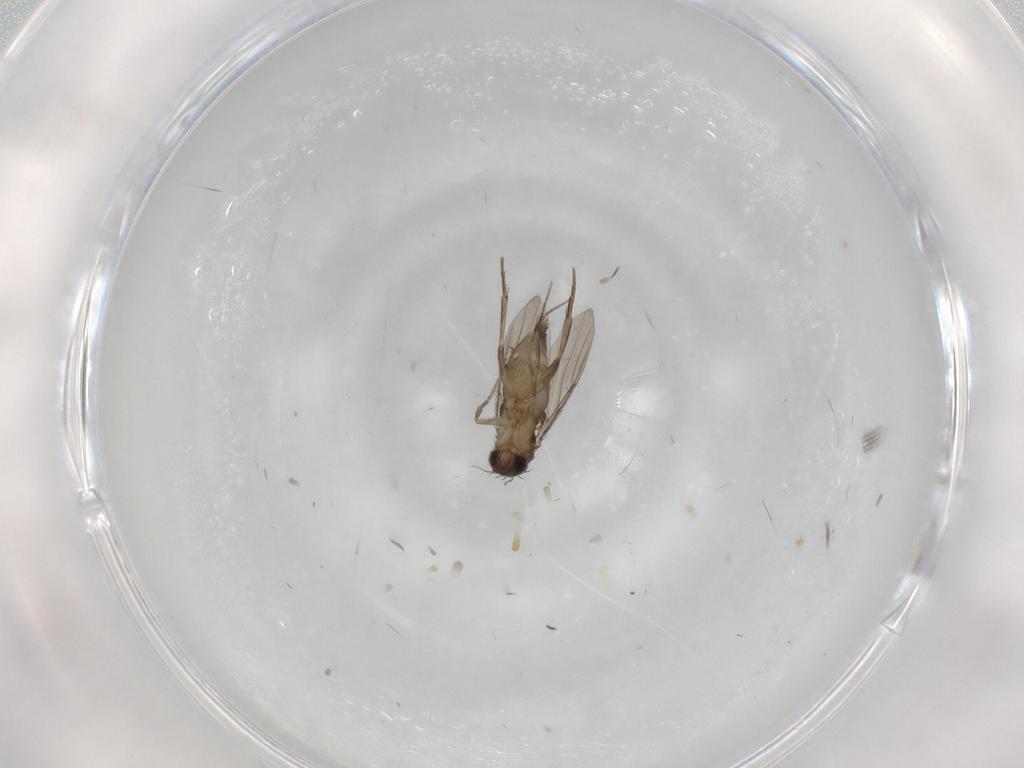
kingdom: Animalia
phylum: Arthropoda
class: Insecta
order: Diptera
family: Phoridae
